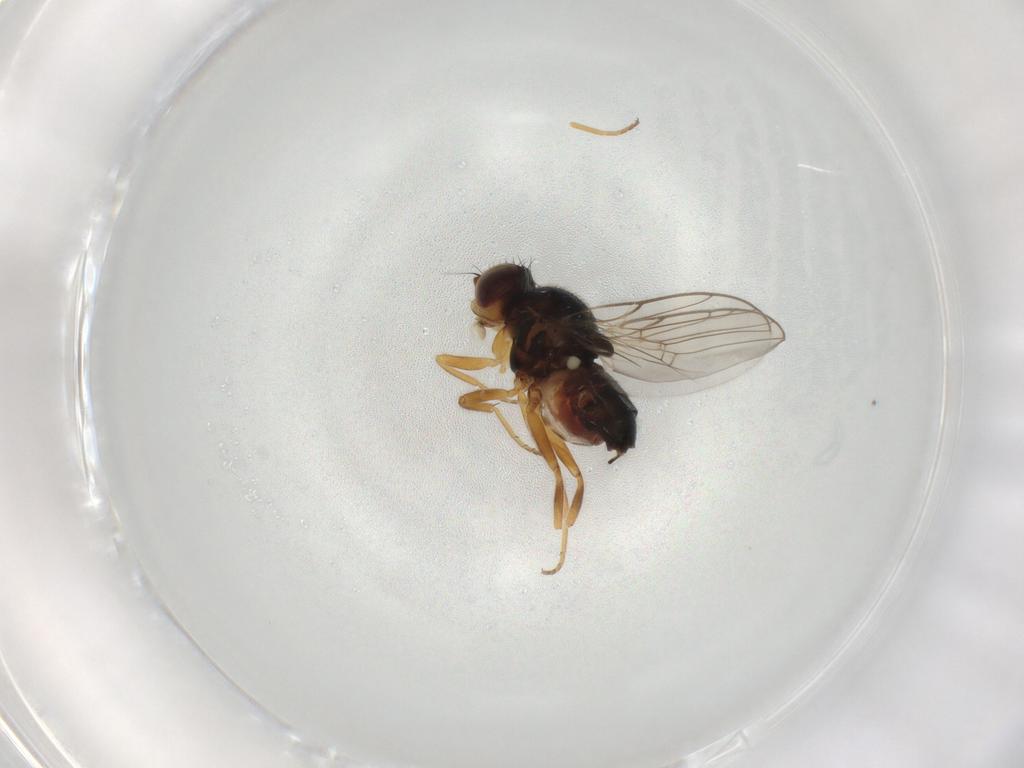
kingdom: Animalia
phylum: Arthropoda
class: Insecta
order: Diptera
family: Chloropidae
